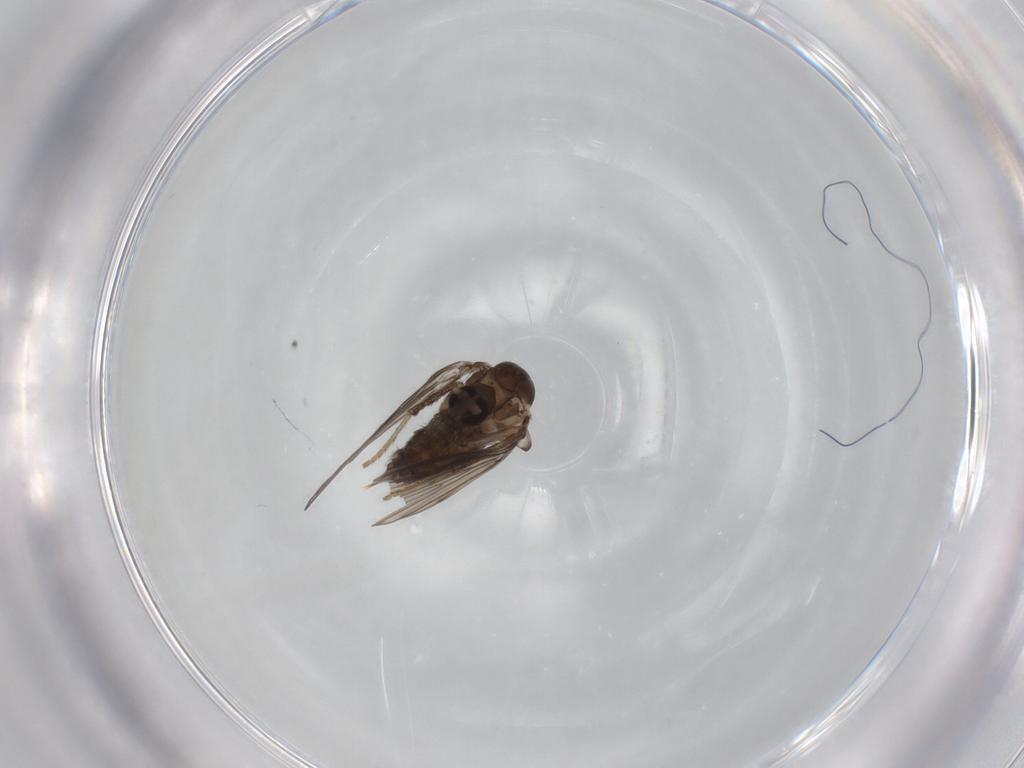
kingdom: Animalia
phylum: Arthropoda
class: Insecta
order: Diptera
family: Psychodidae
